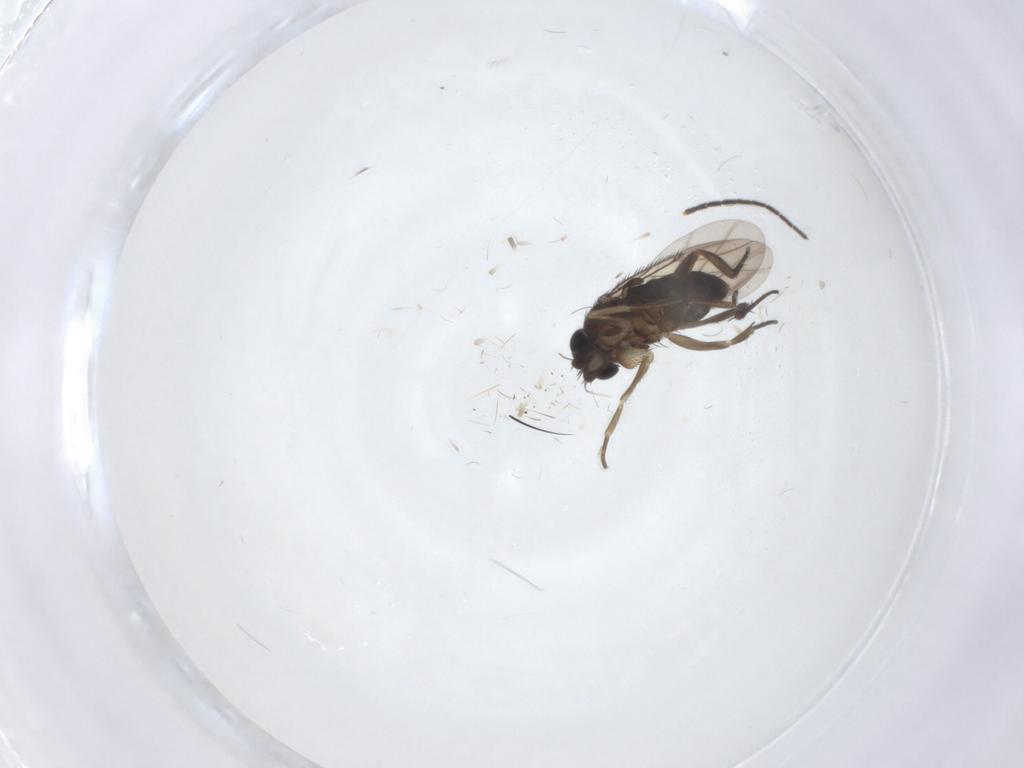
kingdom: Animalia
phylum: Arthropoda
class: Insecta
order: Diptera
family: Phoridae
